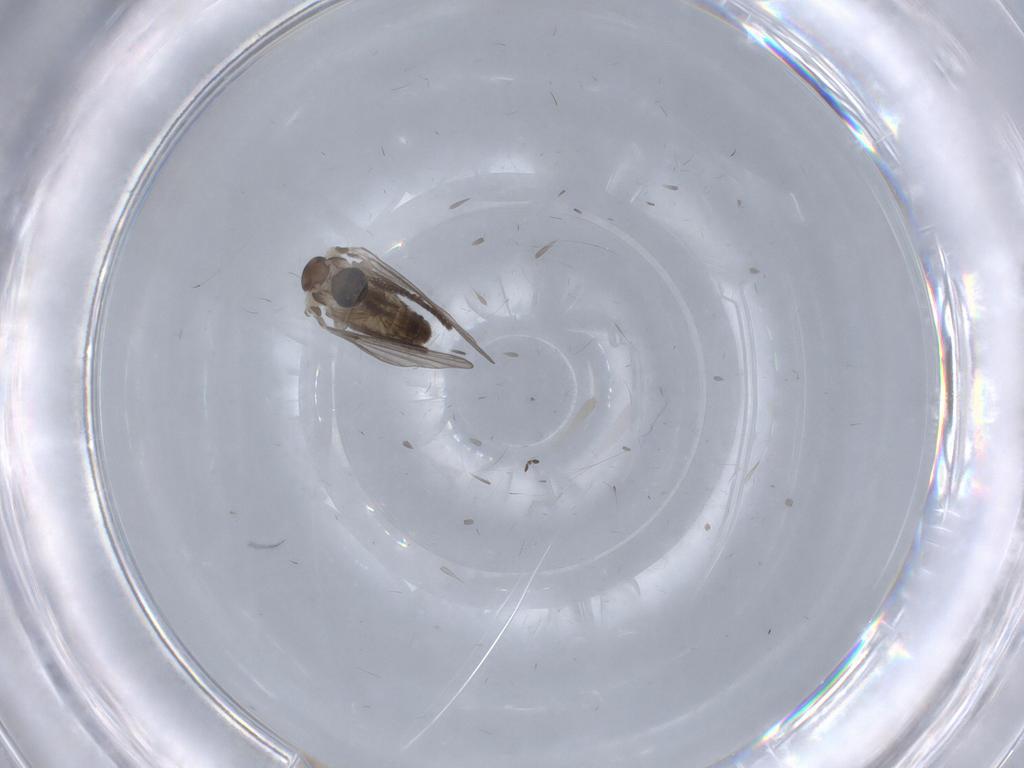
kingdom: Animalia
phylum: Arthropoda
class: Insecta
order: Diptera
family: Psychodidae
